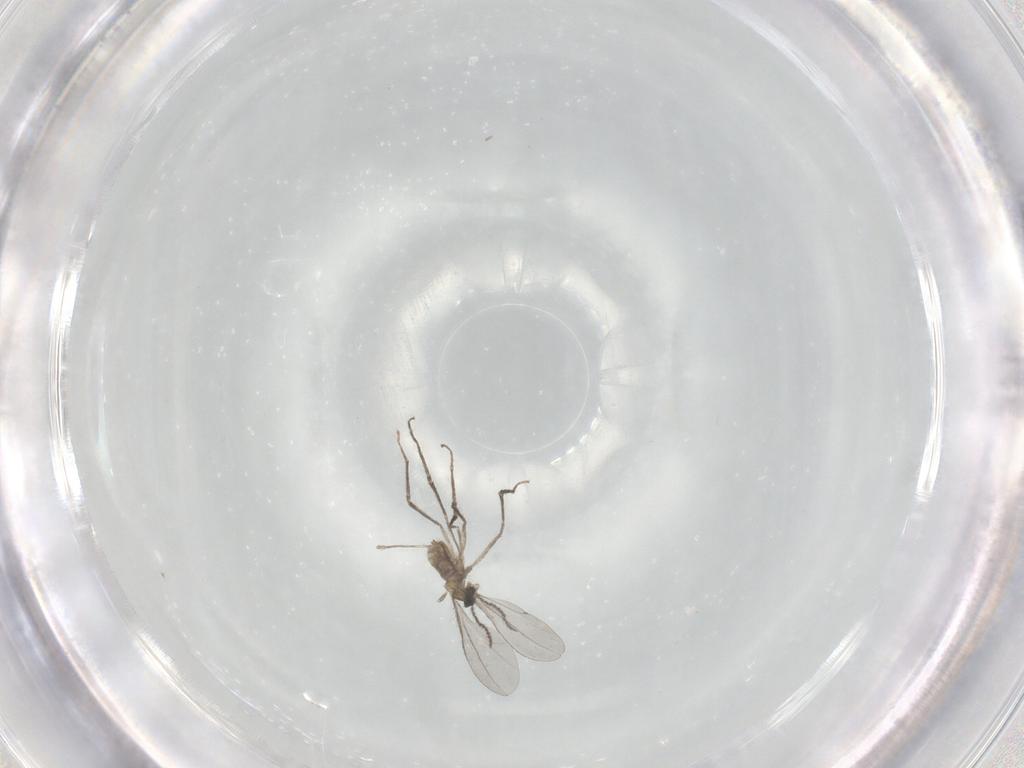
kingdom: Animalia
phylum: Arthropoda
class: Insecta
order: Diptera
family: Cecidomyiidae
